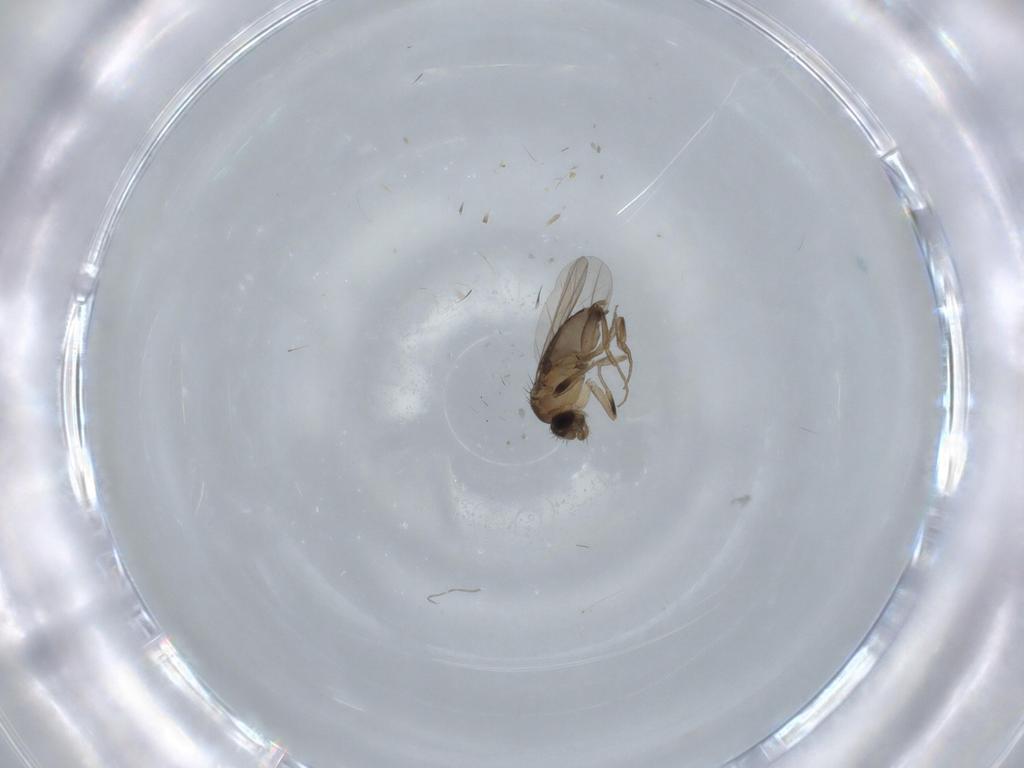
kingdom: Animalia
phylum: Arthropoda
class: Insecta
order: Diptera
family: Phoridae
